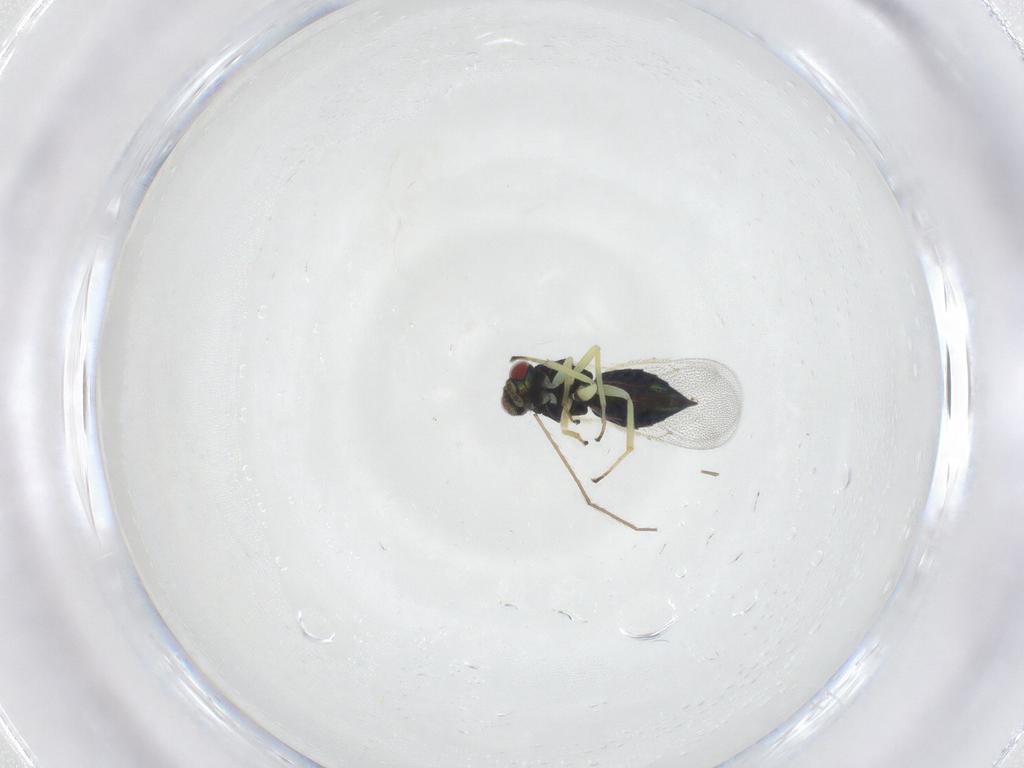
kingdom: Animalia
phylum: Arthropoda
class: Insecta
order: Hymenoptera
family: Eulophidae
